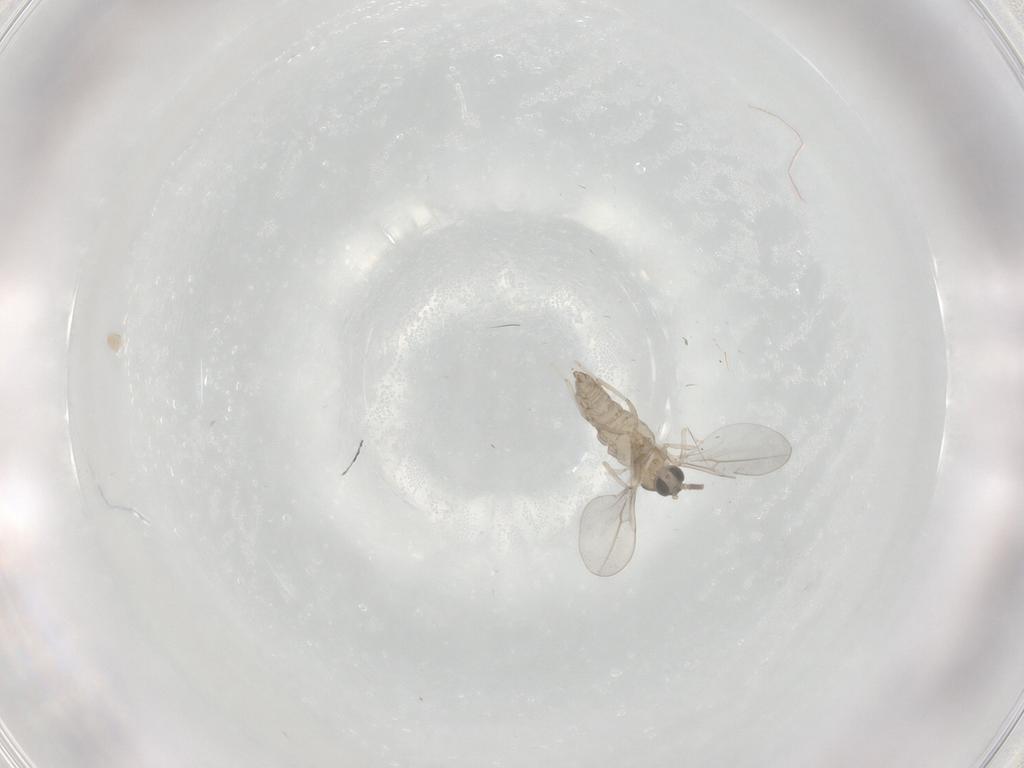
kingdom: Animalia
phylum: Arthropoda
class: Insecta
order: Diptera
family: Cecidomyiidae
